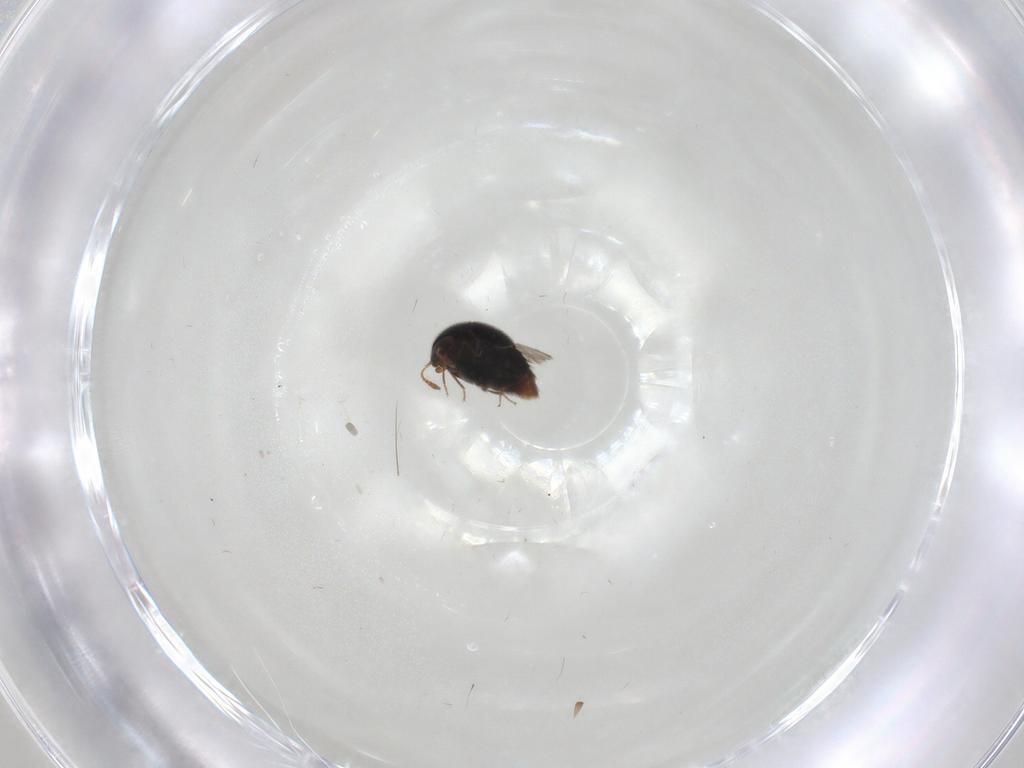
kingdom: Animalia
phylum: Arthropoda
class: Insecta
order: Coleoptera
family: Staphylinidae
